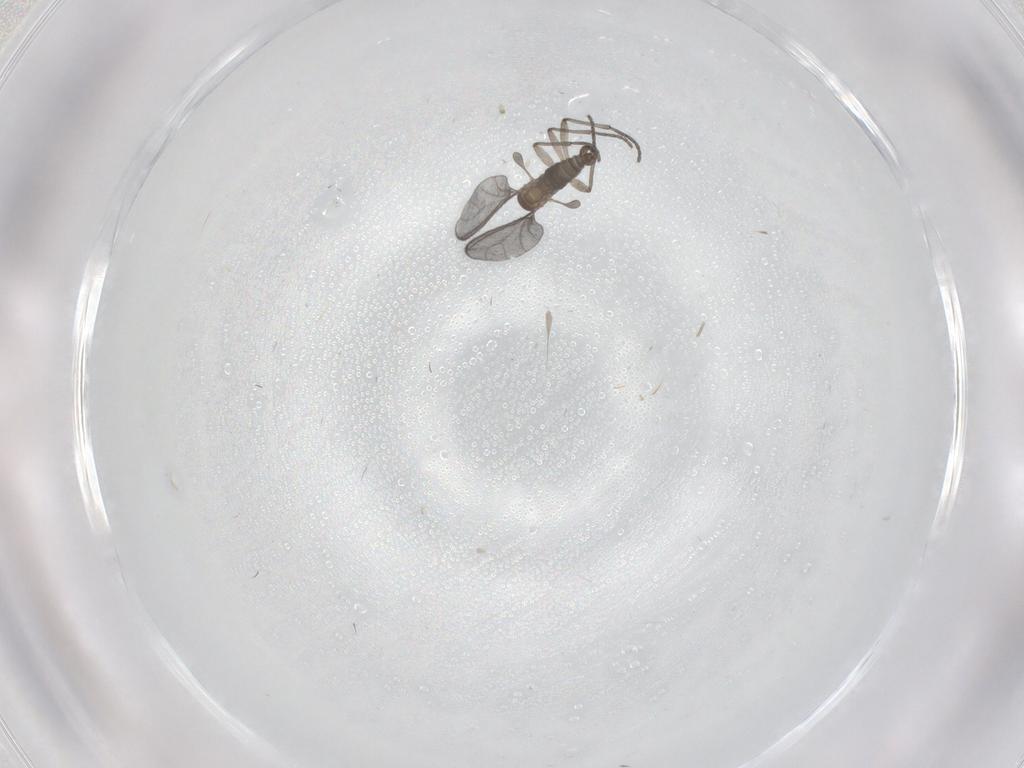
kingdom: Animalia
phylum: Arthropoda
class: Insecta
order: Diptera
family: Sciaridae
